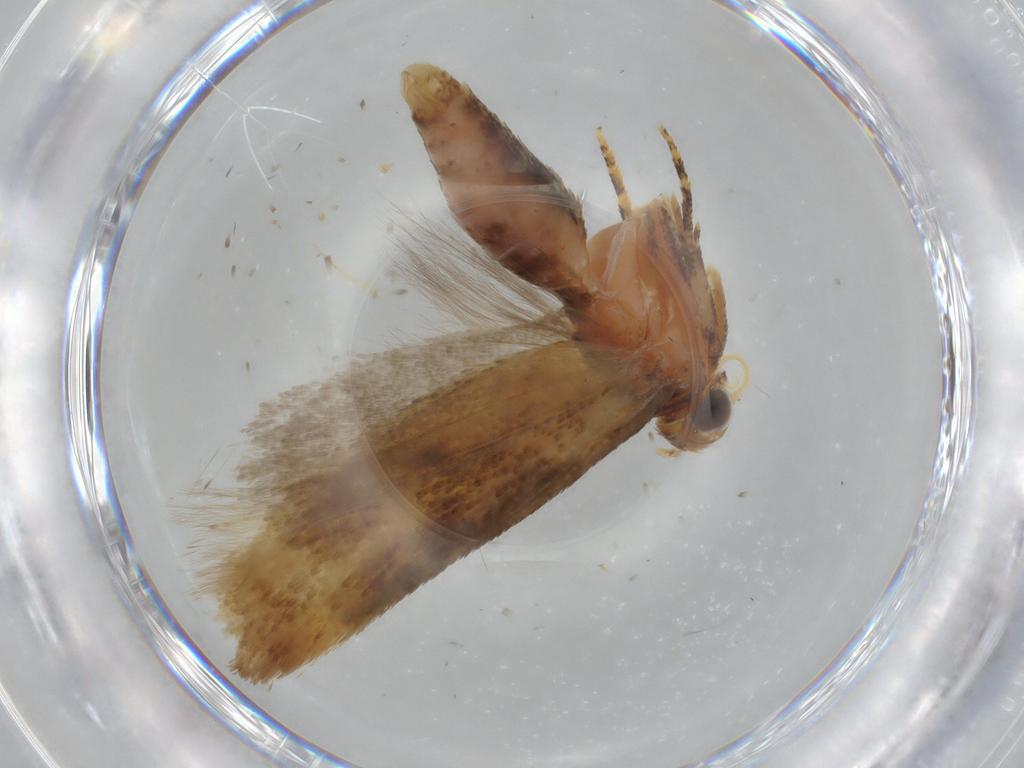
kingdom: Animalia
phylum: Arthropoda
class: Insecta
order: Lepidoptera
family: Gelechiidae
